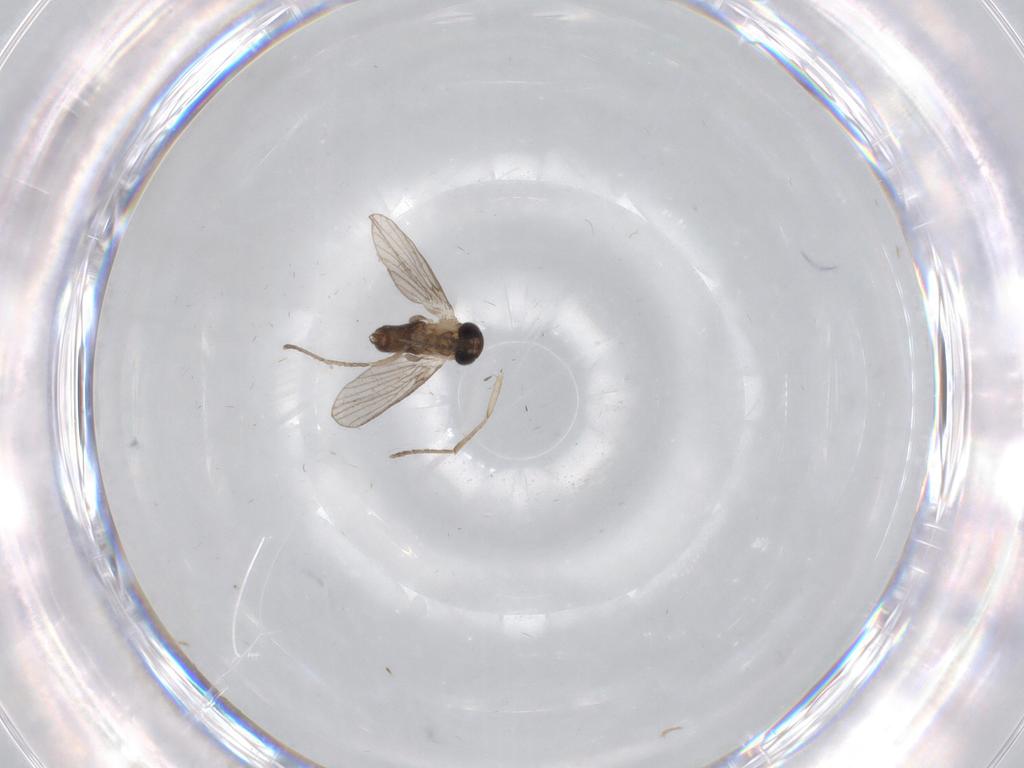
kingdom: Animalia
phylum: Arthropoda
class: Insecta
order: Diptera
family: Psychodidae
